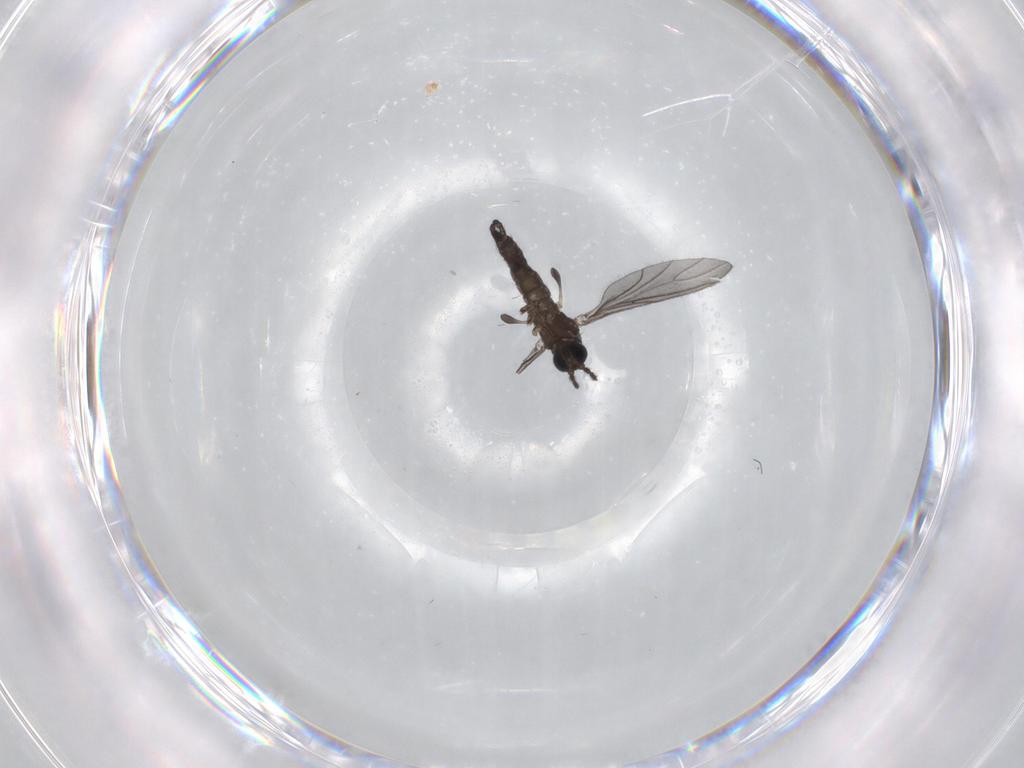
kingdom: Animalia
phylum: Arthropoda
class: Insecta
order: Diptera
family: Sciaridae
